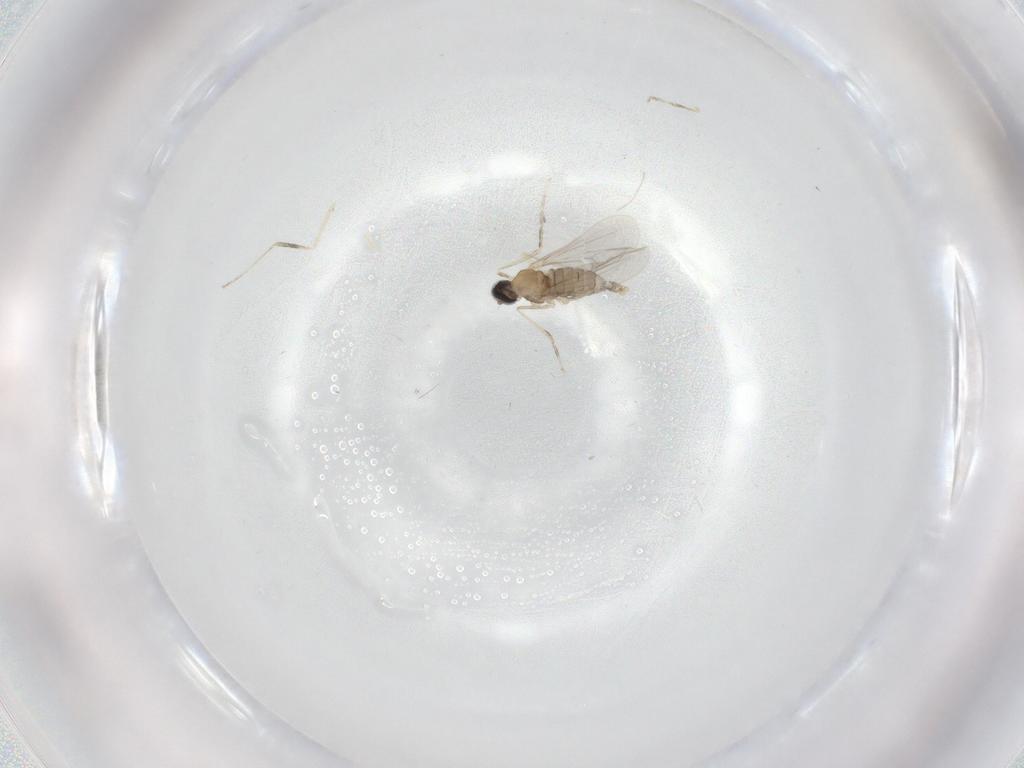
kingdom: Animalia
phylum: Arthropoda
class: Insecta
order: Diptera
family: Cecidomyiidae
